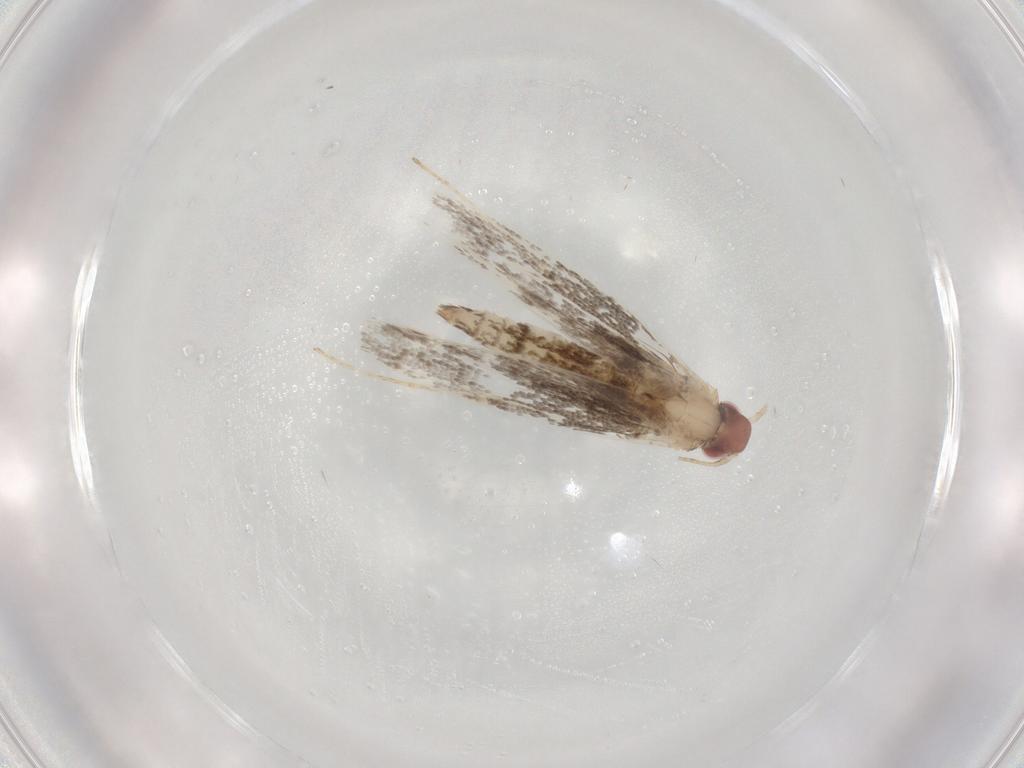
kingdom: Animalia
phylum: Arthropoda
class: Insecta
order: Lepidoptera
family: Gracillariidae
